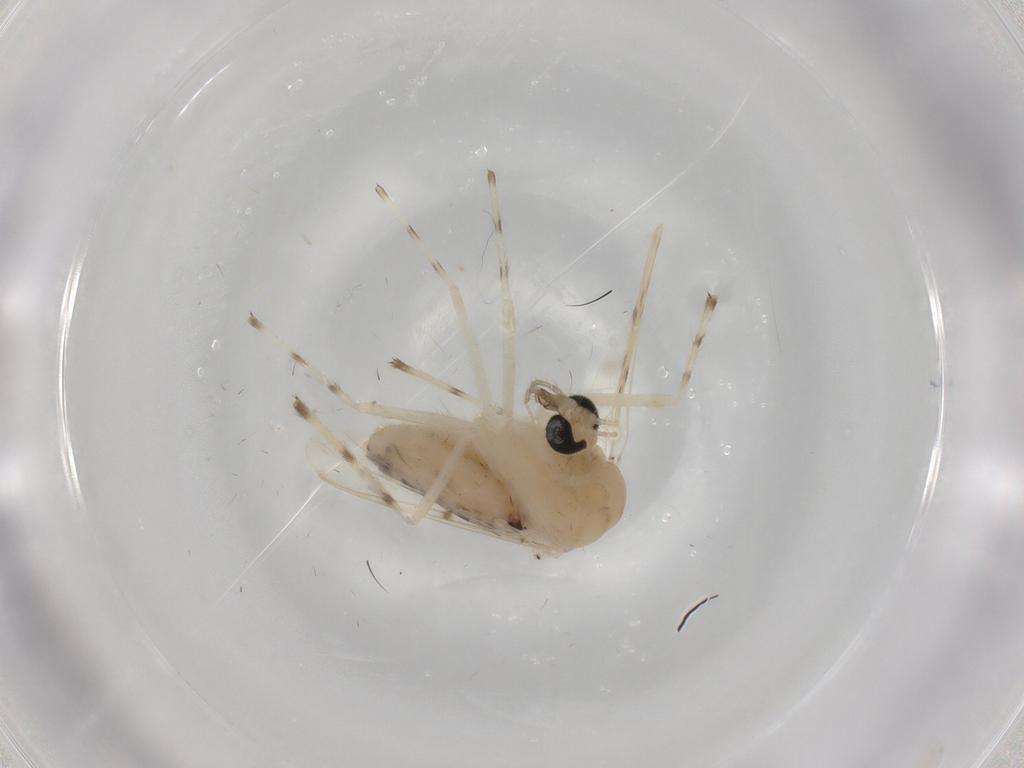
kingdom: Animalia
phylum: Arthropoda
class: Insecta
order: Diptera
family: Chironomidae
